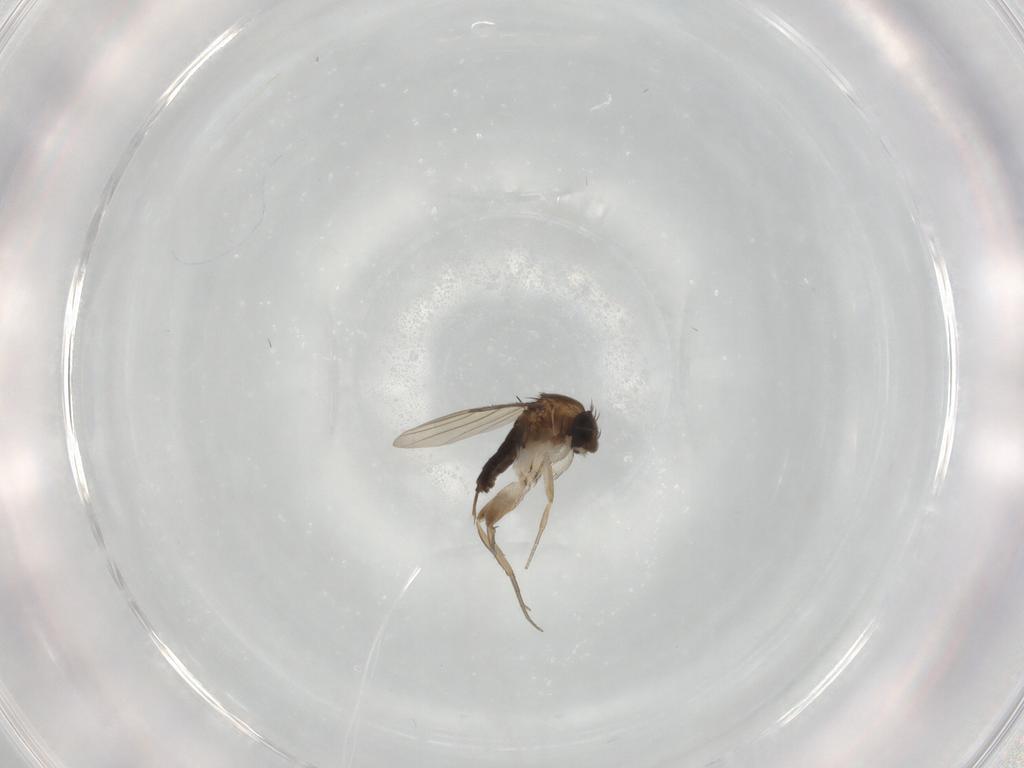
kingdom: Animalia
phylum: Arthropoda
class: Insecta
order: Diptera
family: Phoridae
